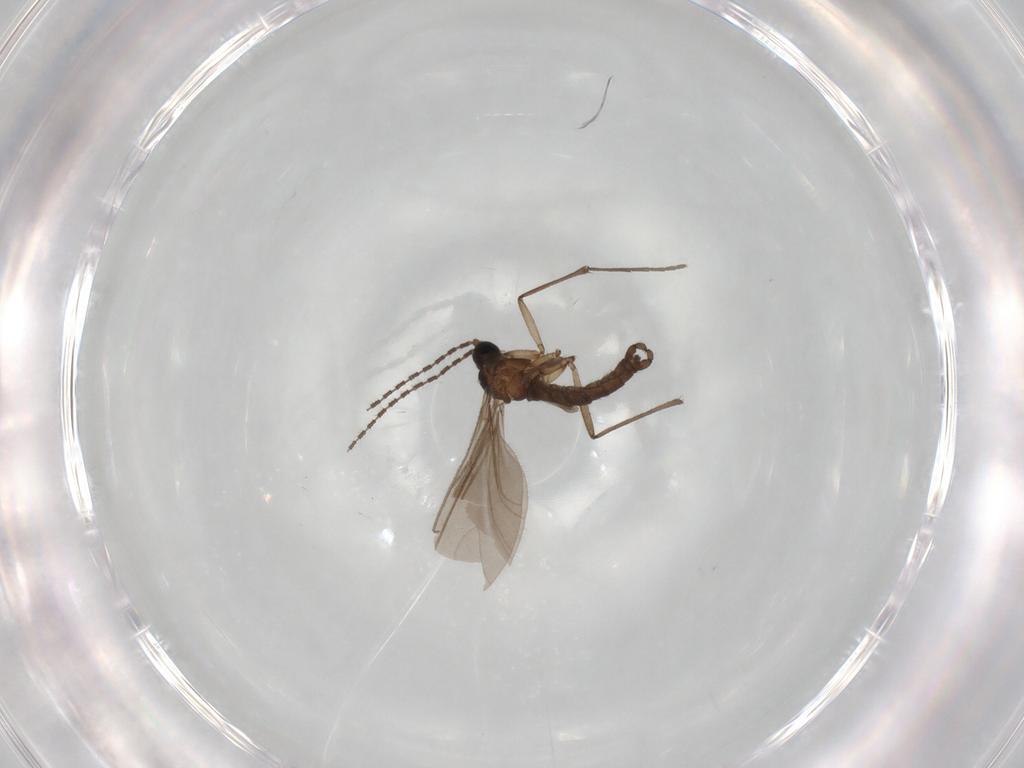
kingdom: Animalia
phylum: Arthropoda
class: Insecta
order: Diptera
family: Sciaridae
